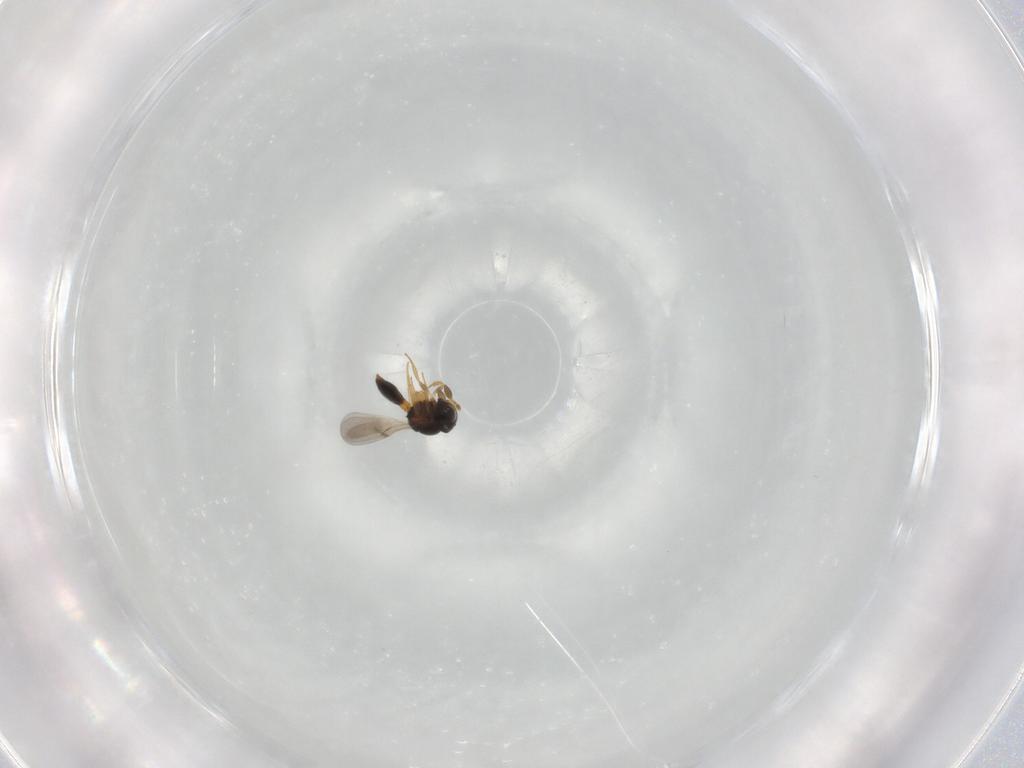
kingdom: Animalia
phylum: Arthropoda
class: Insecta
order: Hymenoptera
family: Scelionidae
